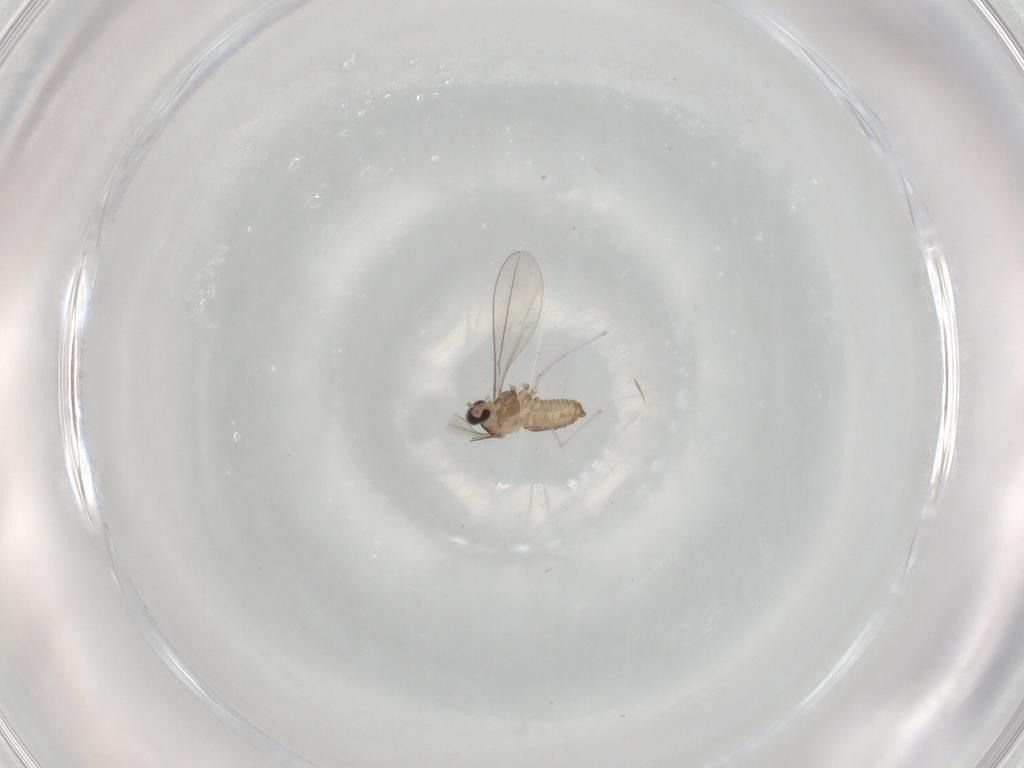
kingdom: Animalia
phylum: Arthropoda
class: Insecta
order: Diptera
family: Cecidomyiidae
